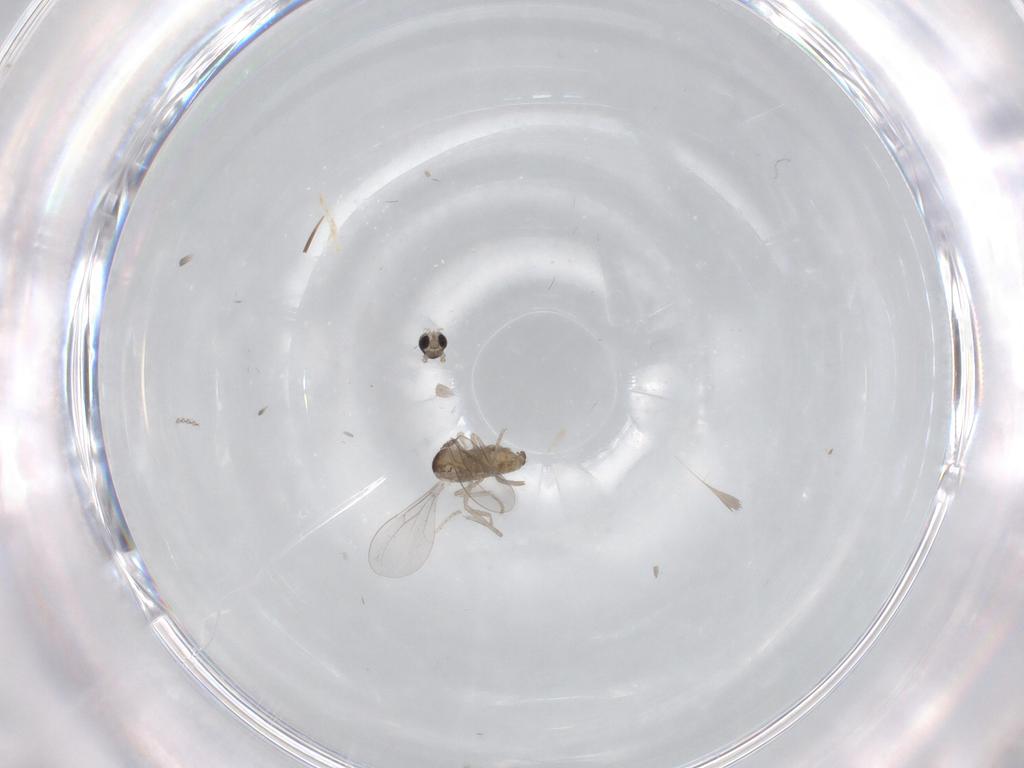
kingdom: Animalia
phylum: Arthropoda
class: Insecta
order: Diptera
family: Cecidomyiidae
